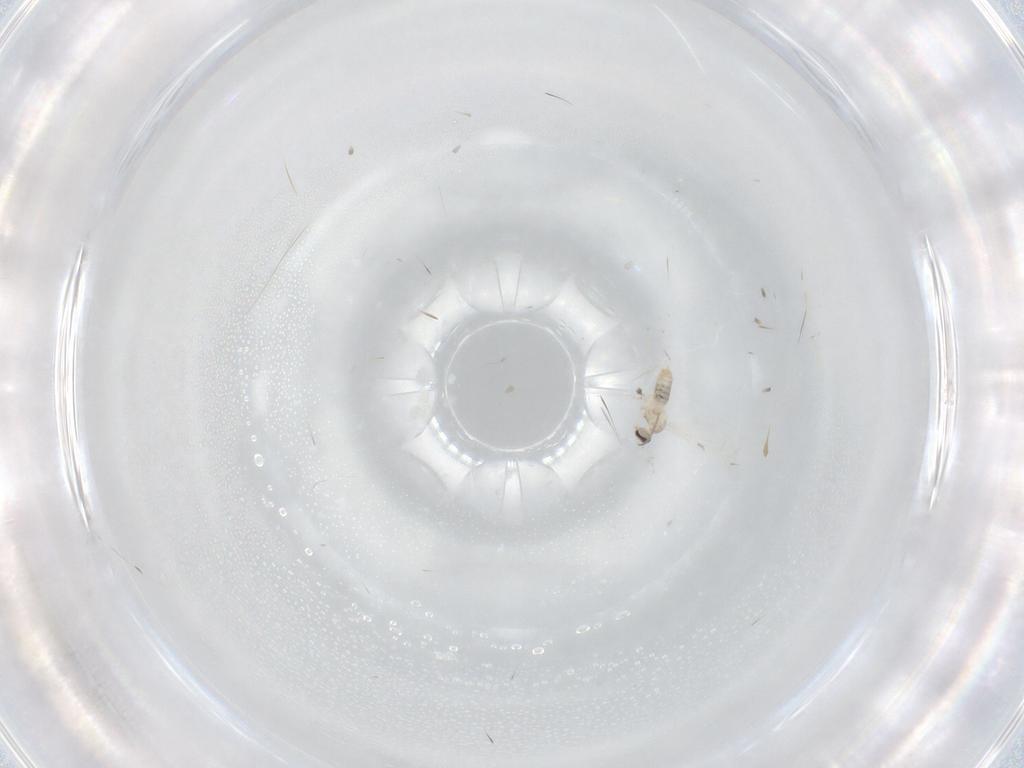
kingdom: Animalia
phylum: Arthropoda
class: Insecta
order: Diptera
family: Cecidomyiidae
